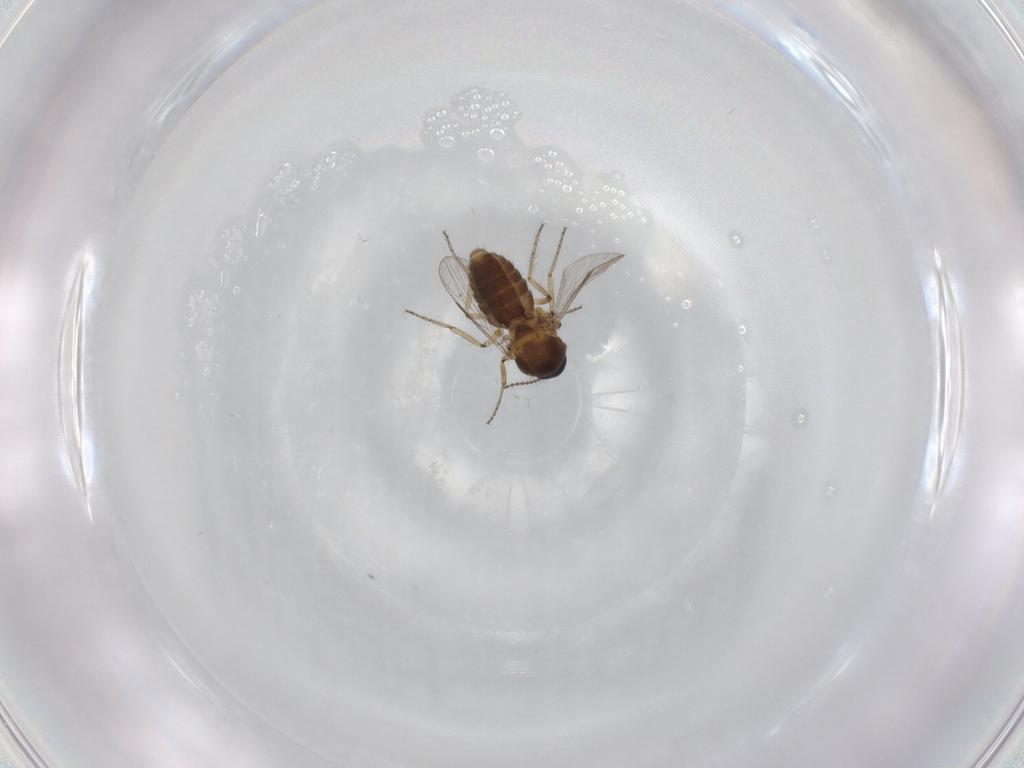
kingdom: Animalia
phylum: Arthropoda
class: Insecta
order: Diptera
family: Ceratopogonidae
